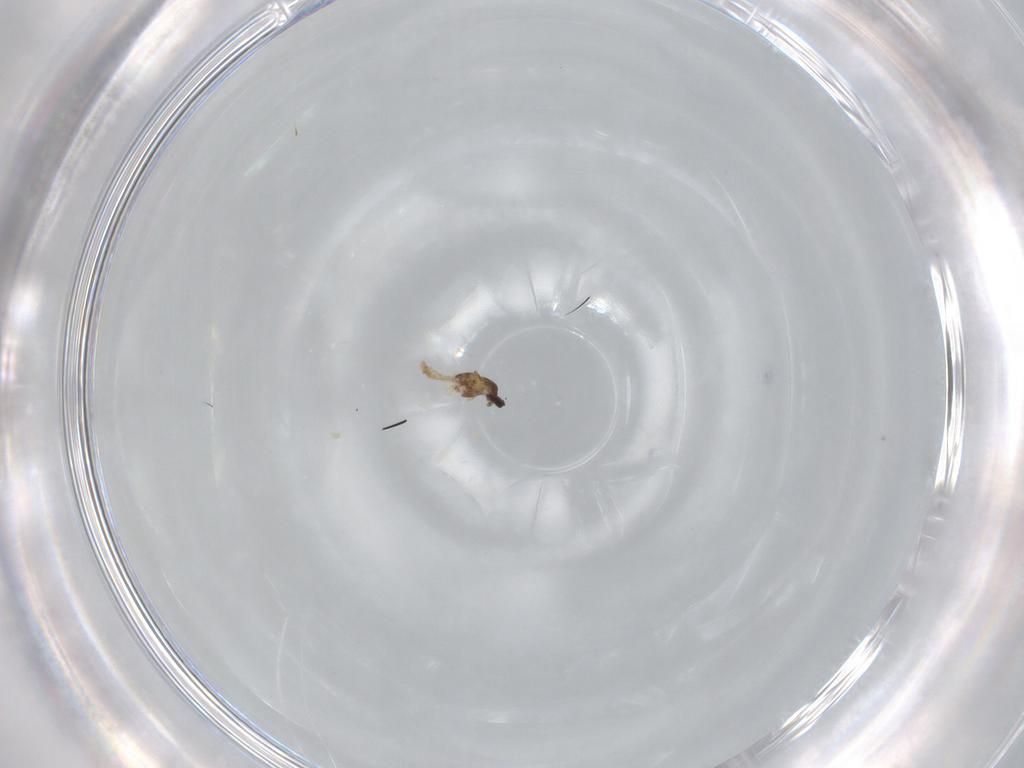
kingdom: Animalia
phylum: Arthropoda
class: Insecta
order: Diptera
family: Cecidomyiidae
